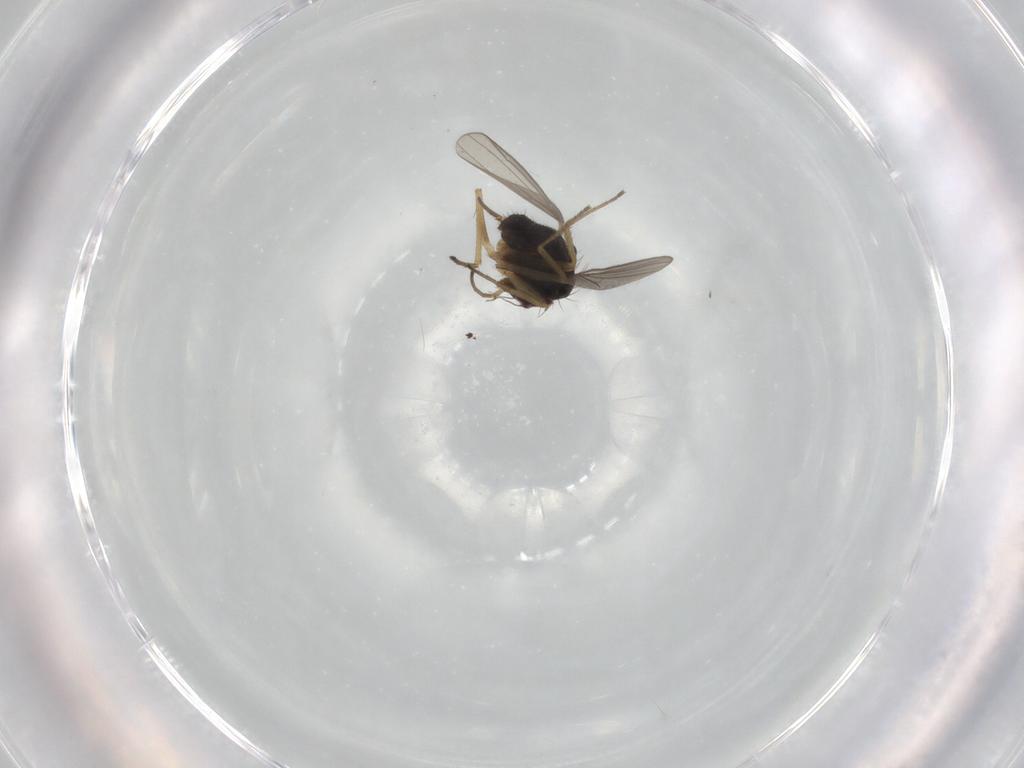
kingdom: Animalia
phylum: Arthropoda
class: Insecta
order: Diptera
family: Dolichopodidae
